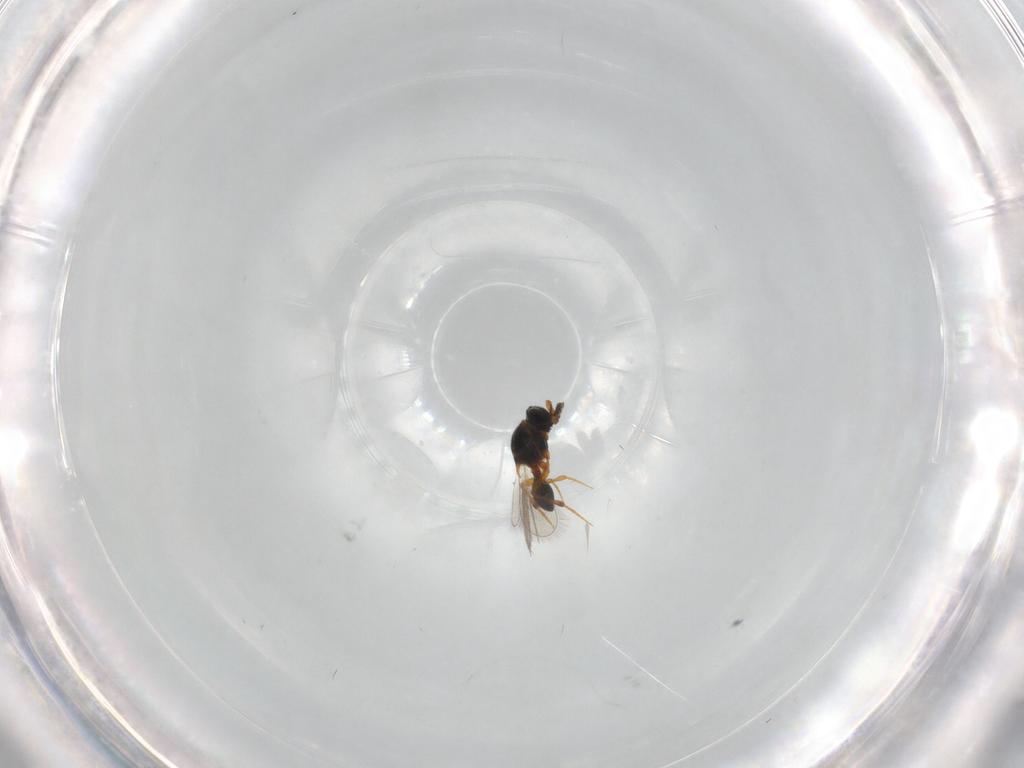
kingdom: Animalia
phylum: Arthropoda
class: Insecta
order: Hymenoptera
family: Platygastridae
